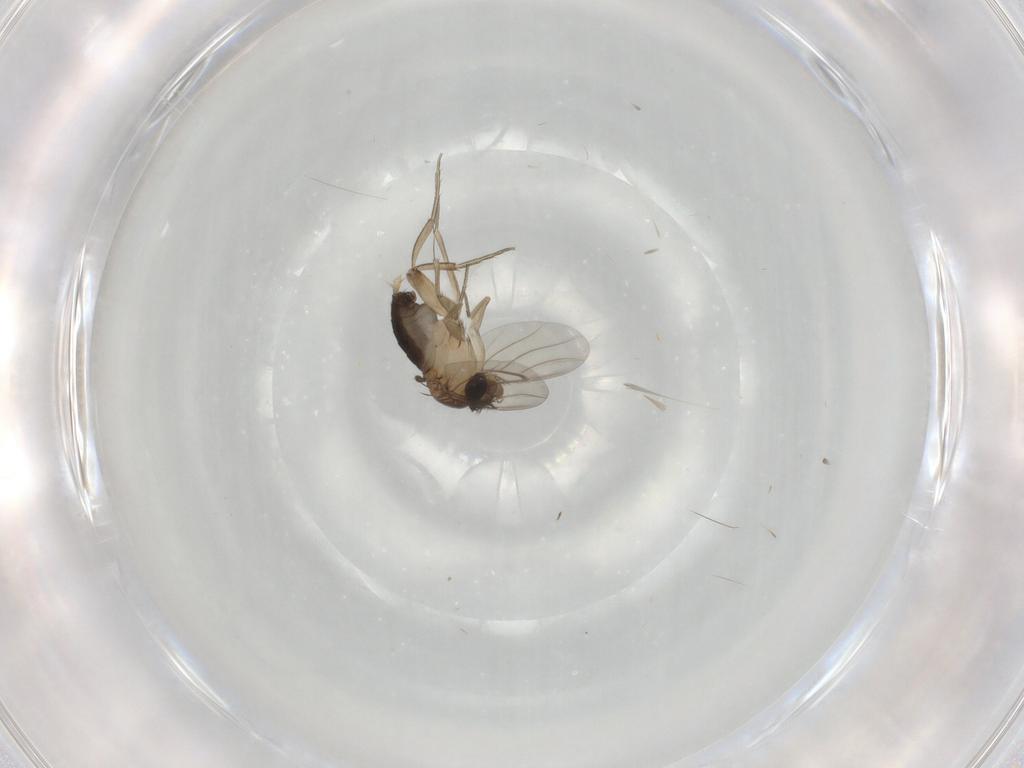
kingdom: Animalia
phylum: Arthropoda
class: Insecta
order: Diptera
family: Phoridae
